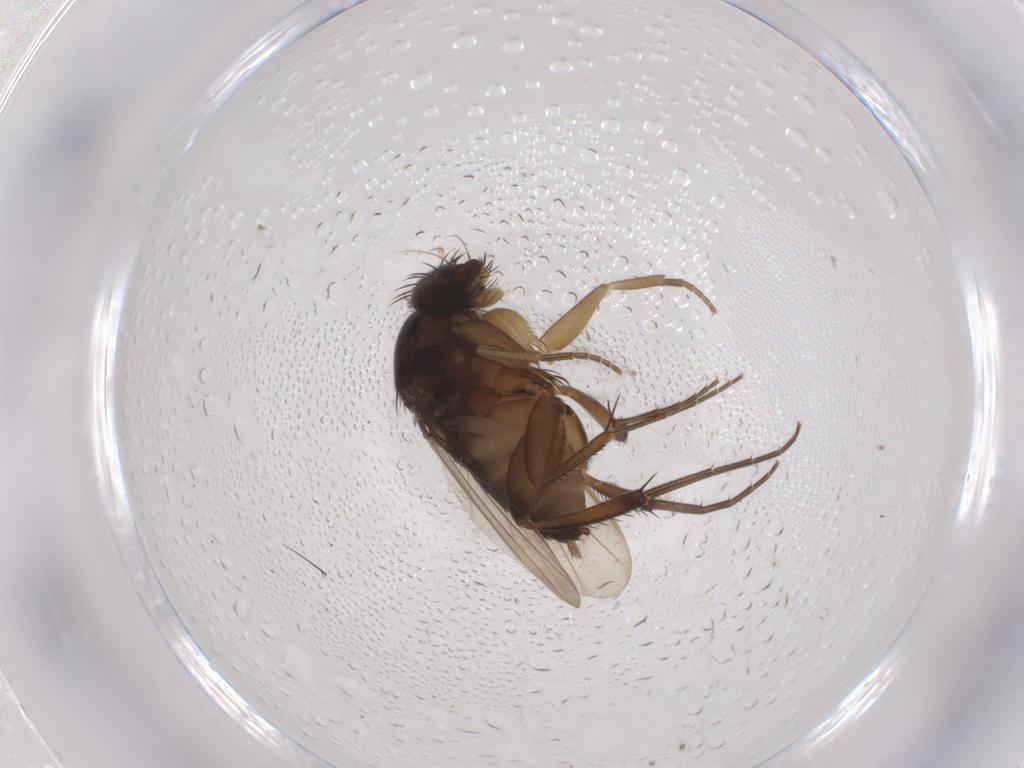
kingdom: Animalia
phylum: Arthropoda
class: Insecta
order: Diptera
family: Phoridae
